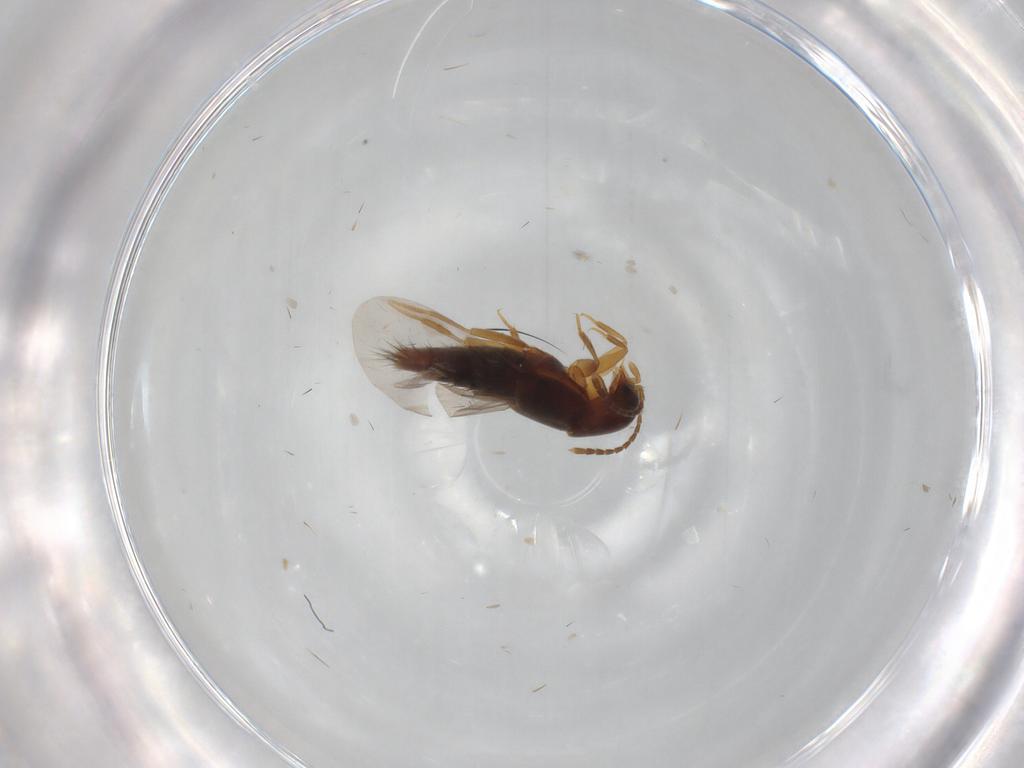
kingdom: Animalia
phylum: Arthropoda
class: Insecta
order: Coleoptera
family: Staphylinidae
